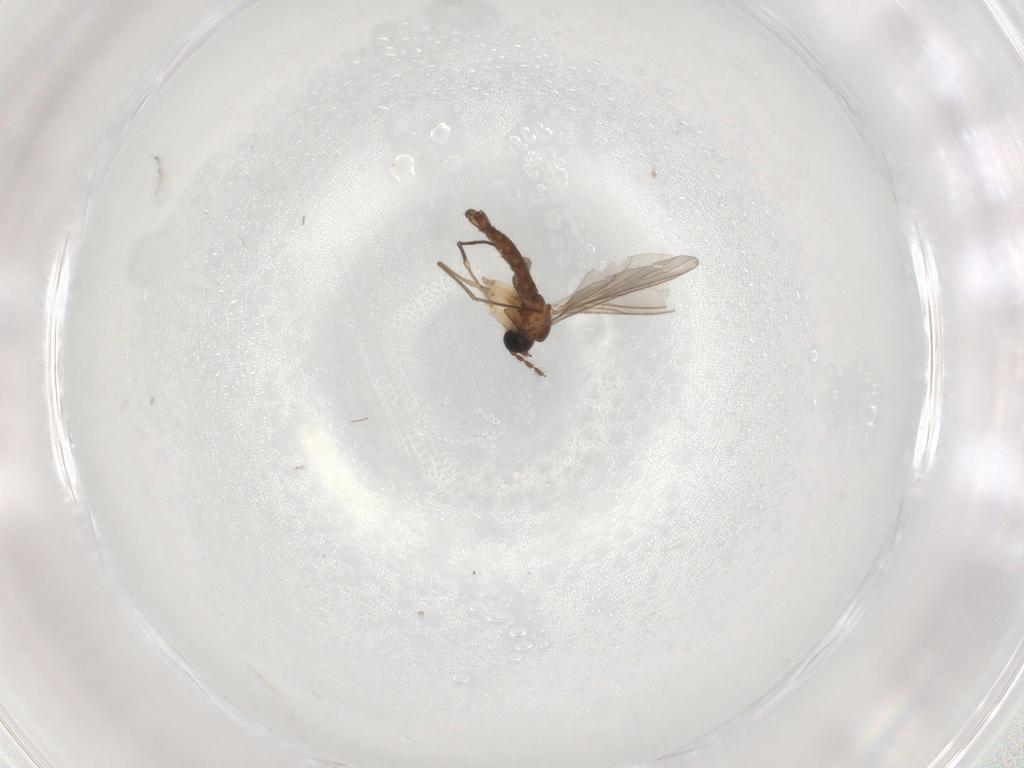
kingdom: Animalia
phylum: Arthropoda
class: Insecta
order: Diptera
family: Sciaridae
